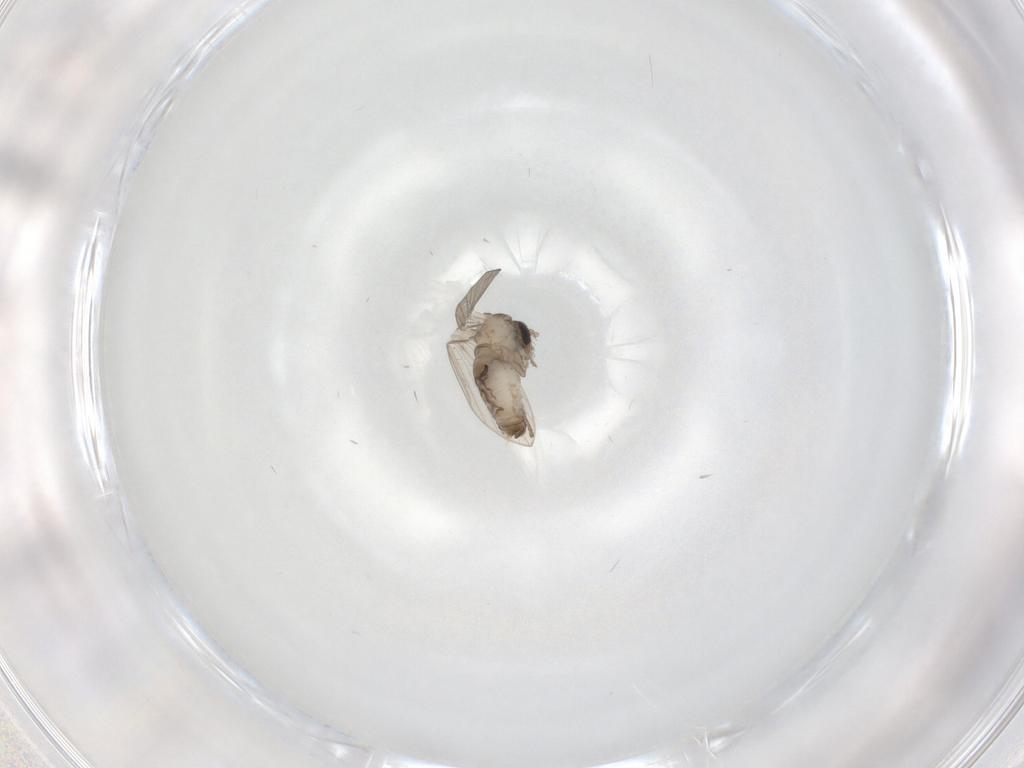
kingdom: Animalia
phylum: Arthropoda
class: Insecta
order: Diptera
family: Psychodidae
